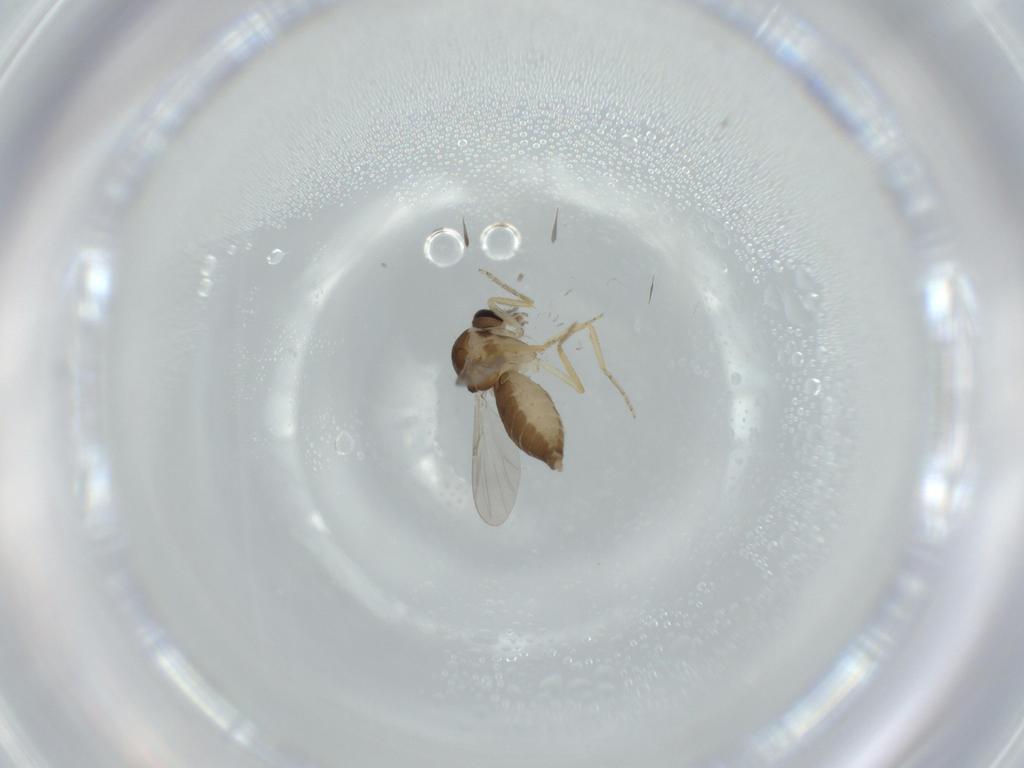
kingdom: Animalia
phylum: Arthropoda
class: Insecta
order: Diptera
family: Ceratopogonidae
